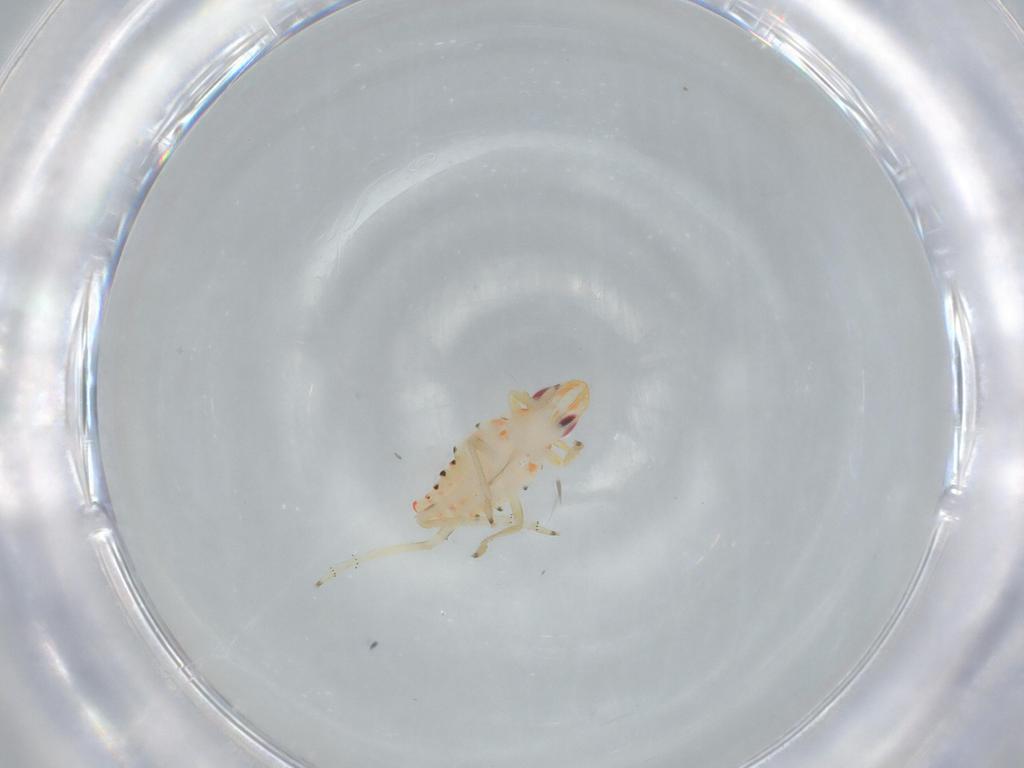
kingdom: Animalia
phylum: Arthropoda
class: Insecta
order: Hemiptera
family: Tropiduchidae
